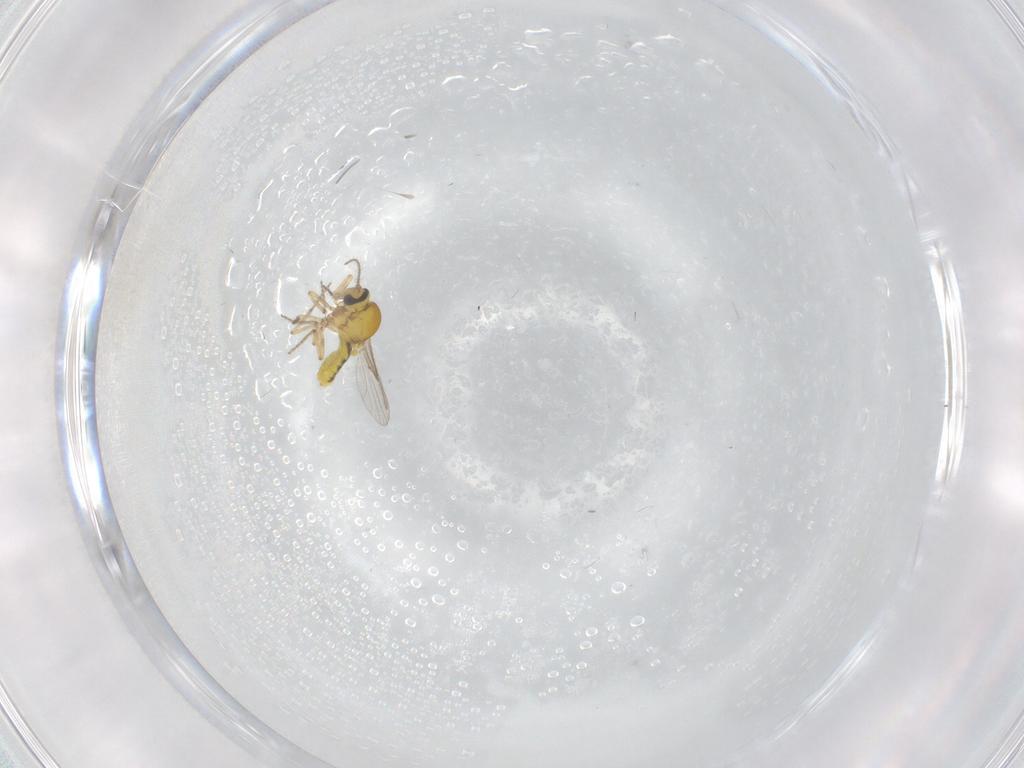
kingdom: Animalia
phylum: Arthropoda
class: Insecta
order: Diptera
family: Ceratopogonidae
